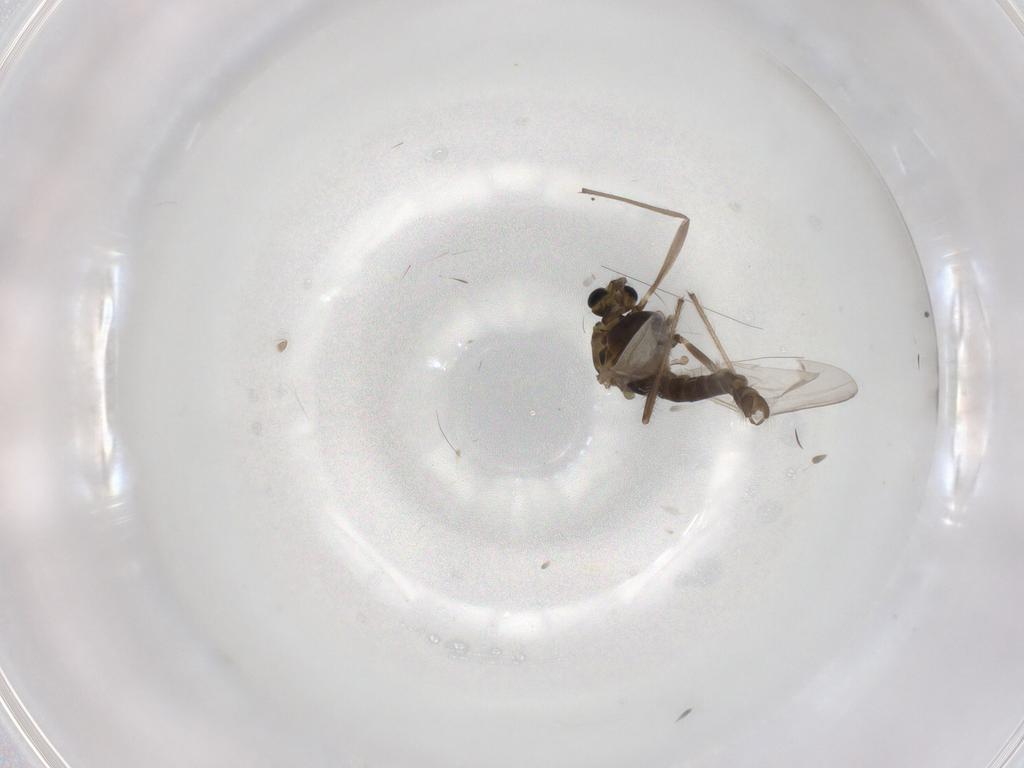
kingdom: Animalia
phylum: Arthropoda
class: Insecta
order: Diptera
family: Chironomidae
